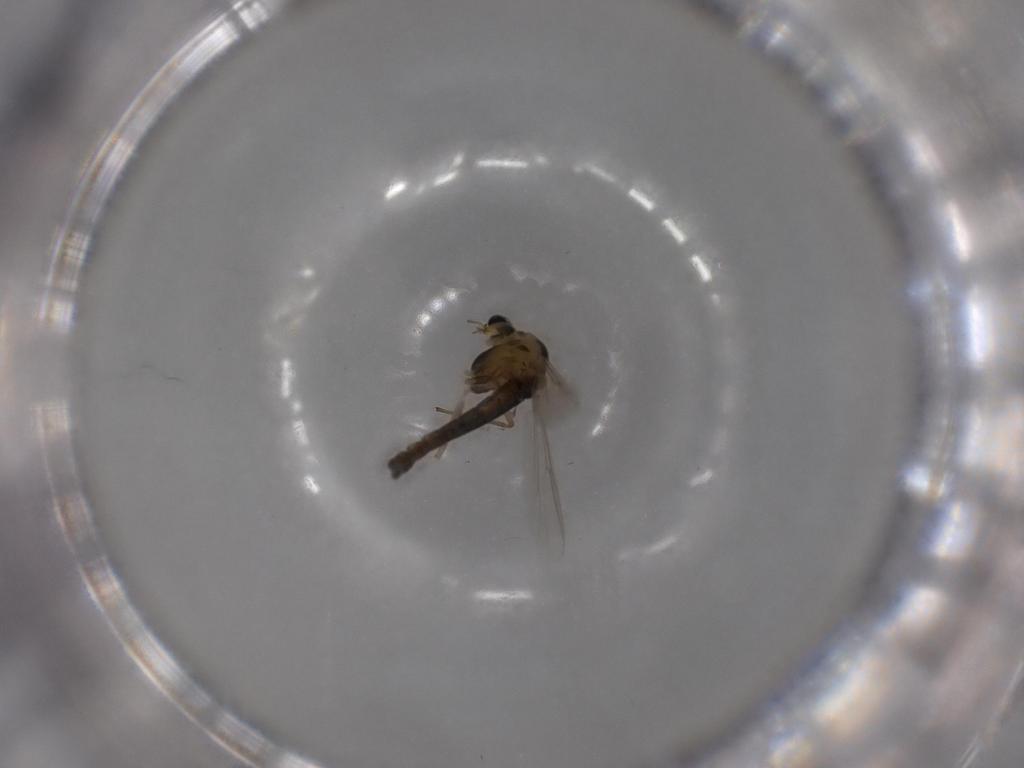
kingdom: Animalia
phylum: Arthropoda
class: Insecta
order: Diptera
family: Chironomidae
